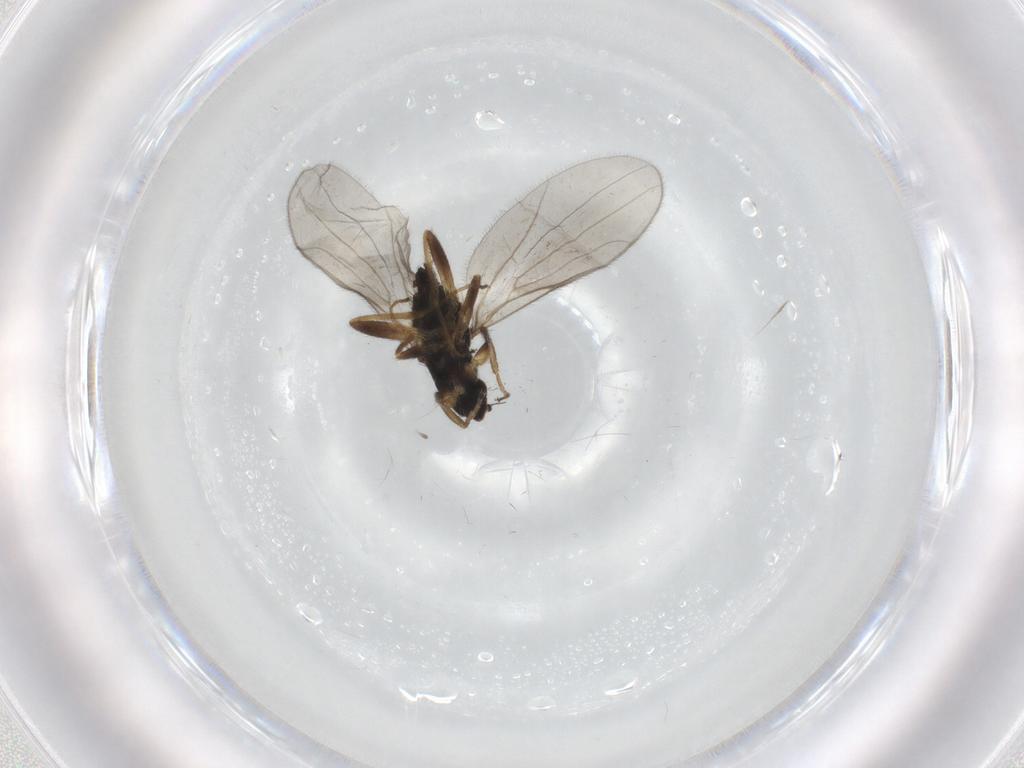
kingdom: Animalia
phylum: Arthropoda
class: Insecta
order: Diptera
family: Hybotidae
